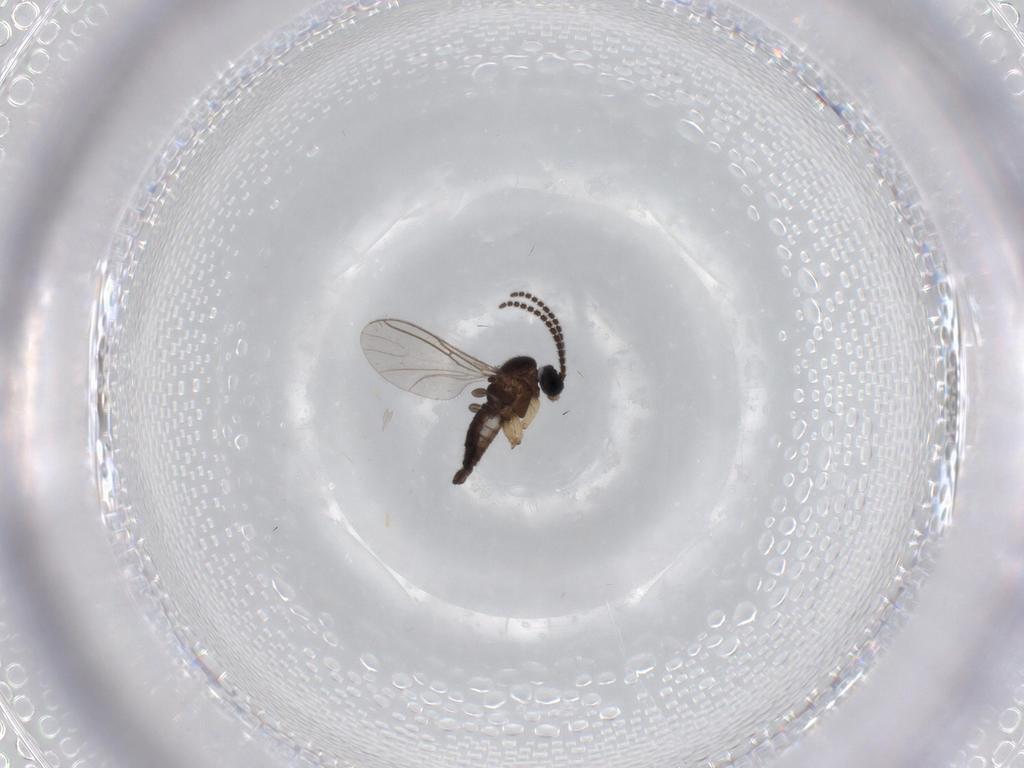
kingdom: Animalia
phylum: Arthropoda
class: Insecta
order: Diptera
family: Sciaridae
